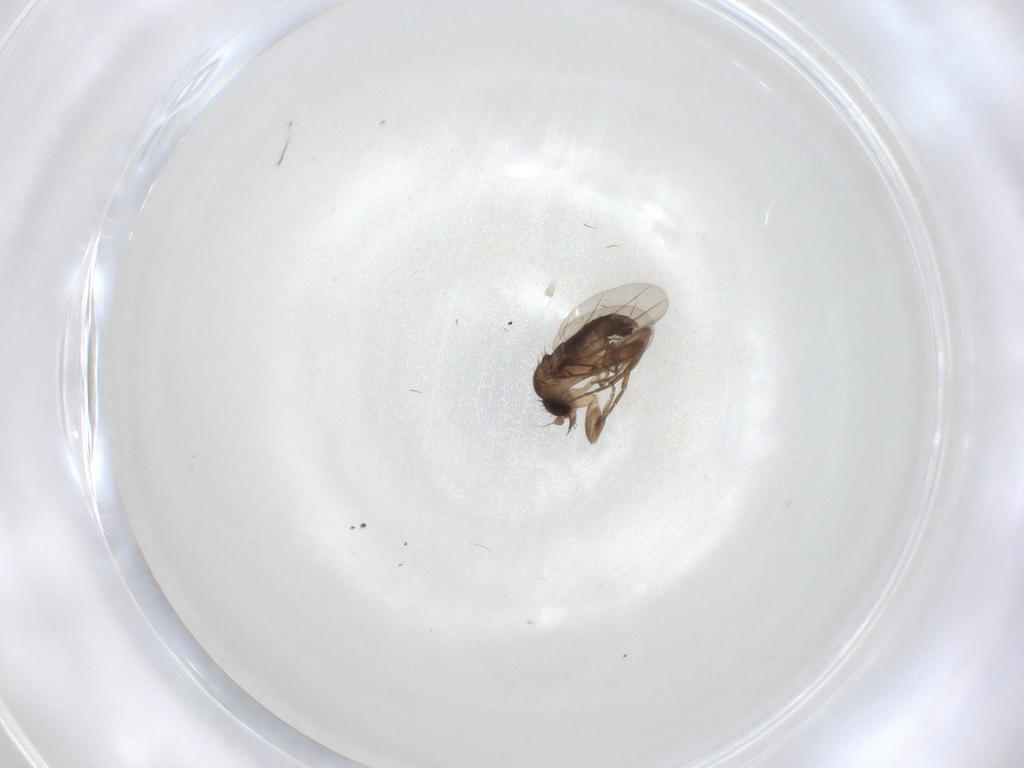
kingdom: Animalia
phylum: Arthropoda
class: Insecta
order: Diptera
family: Phoridae
